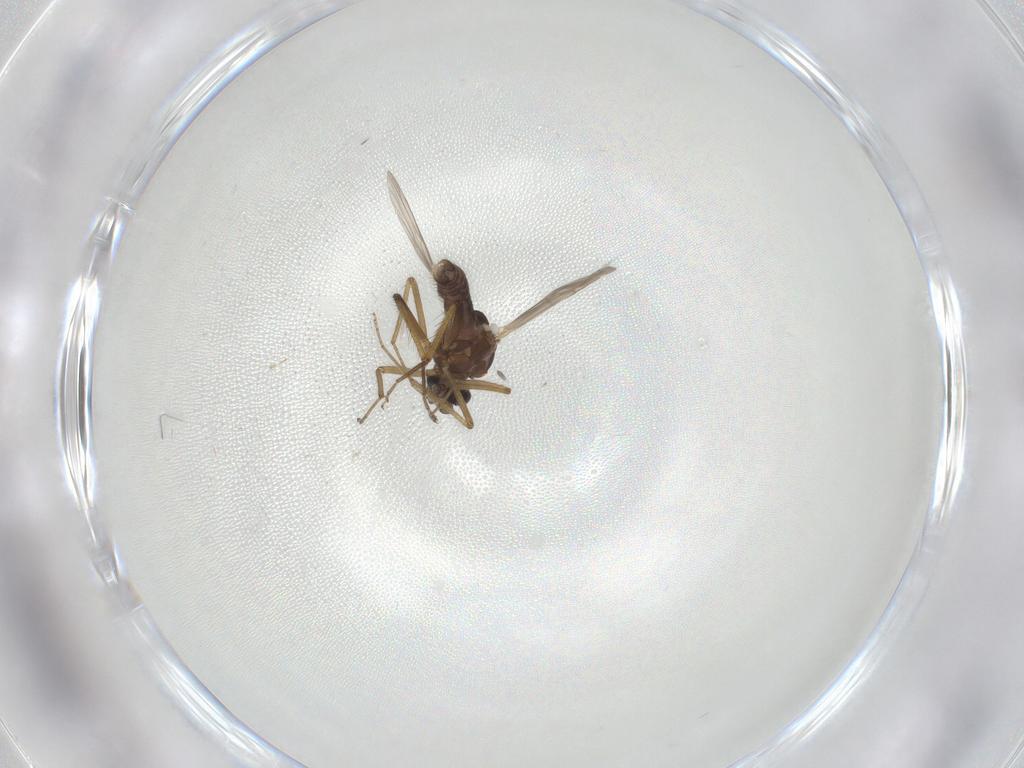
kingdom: Animalia
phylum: Arthropoda
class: Insecta
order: Diptera
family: Ceratopogonidae
